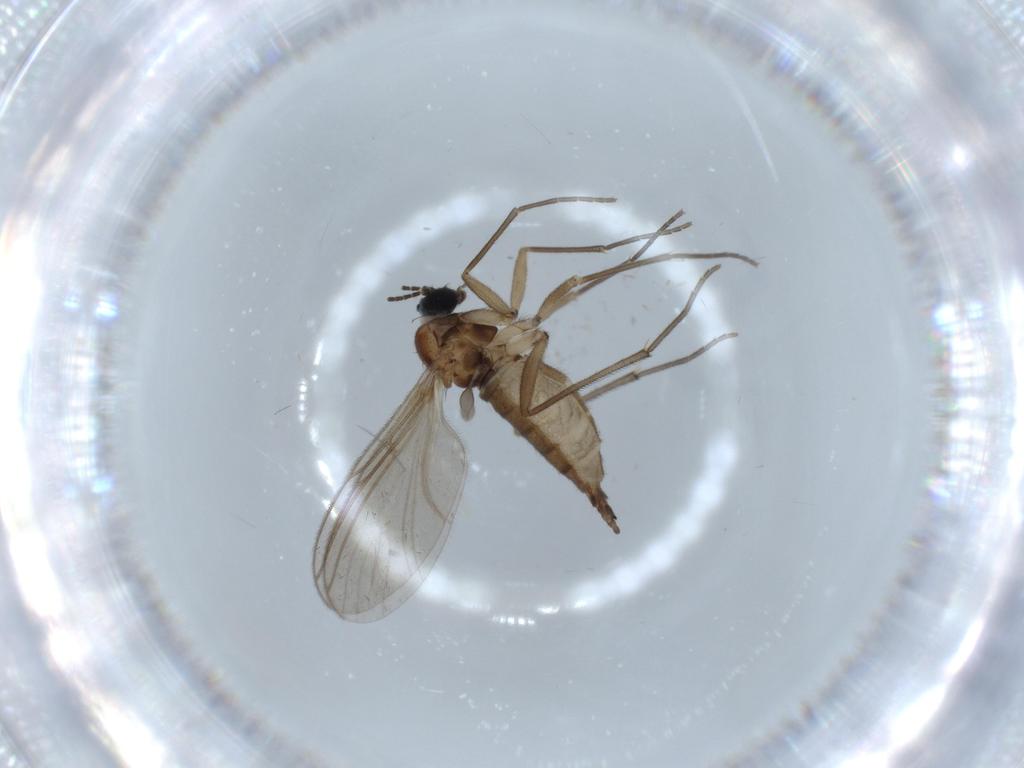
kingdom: Animalia
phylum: Arthropoda
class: Insecta
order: Diptera
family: Sciaridae
